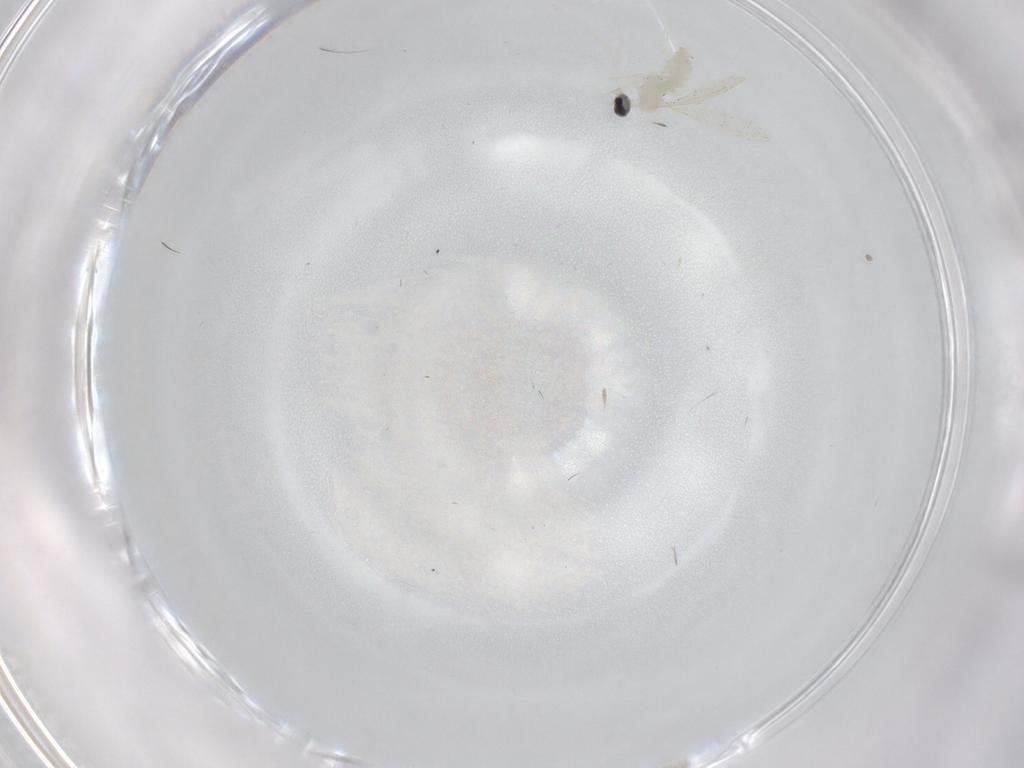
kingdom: Animalia
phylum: Arthropoda
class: Insecta
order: Diptera
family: Cecidomyiidae
